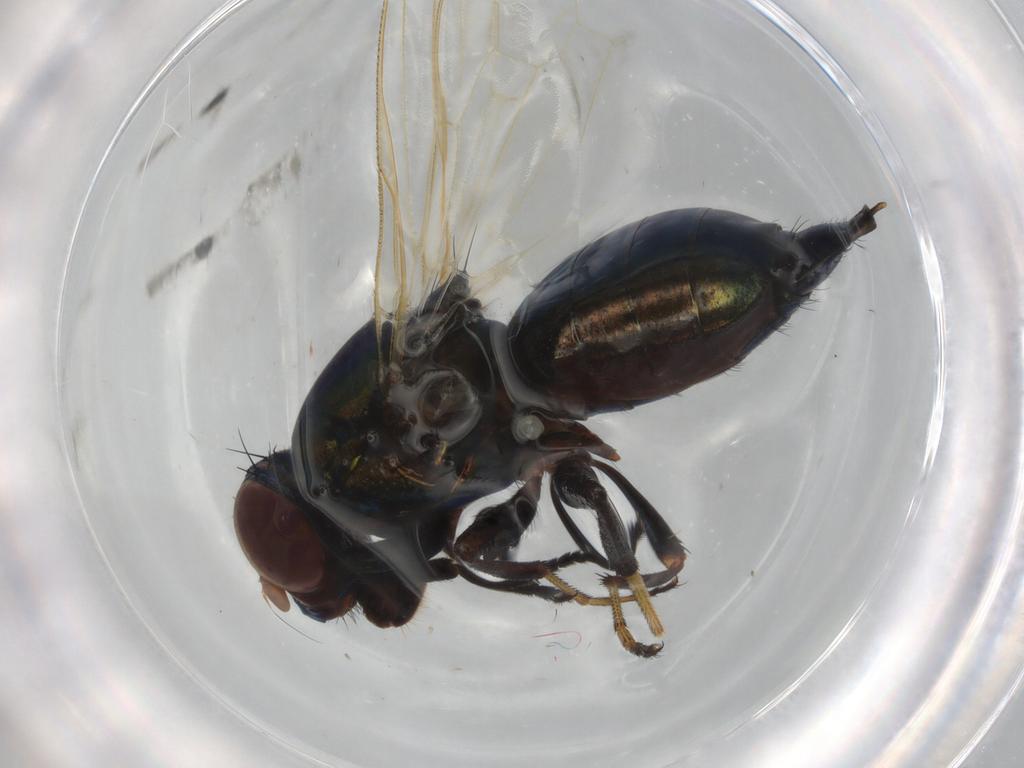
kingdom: Animalia
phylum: Arthropoda
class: Insecta
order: Diptera
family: Ulidiidae
